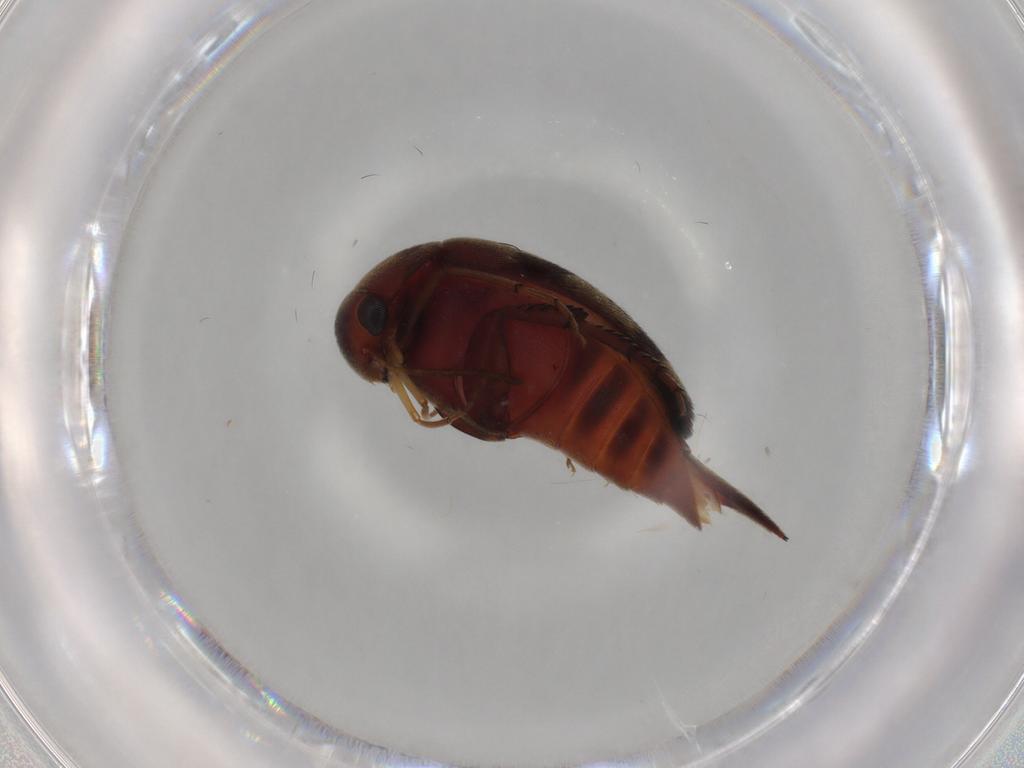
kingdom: Animalia
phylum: Arthropoda
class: Insecta
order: Coleoptera
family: Mordellidae
